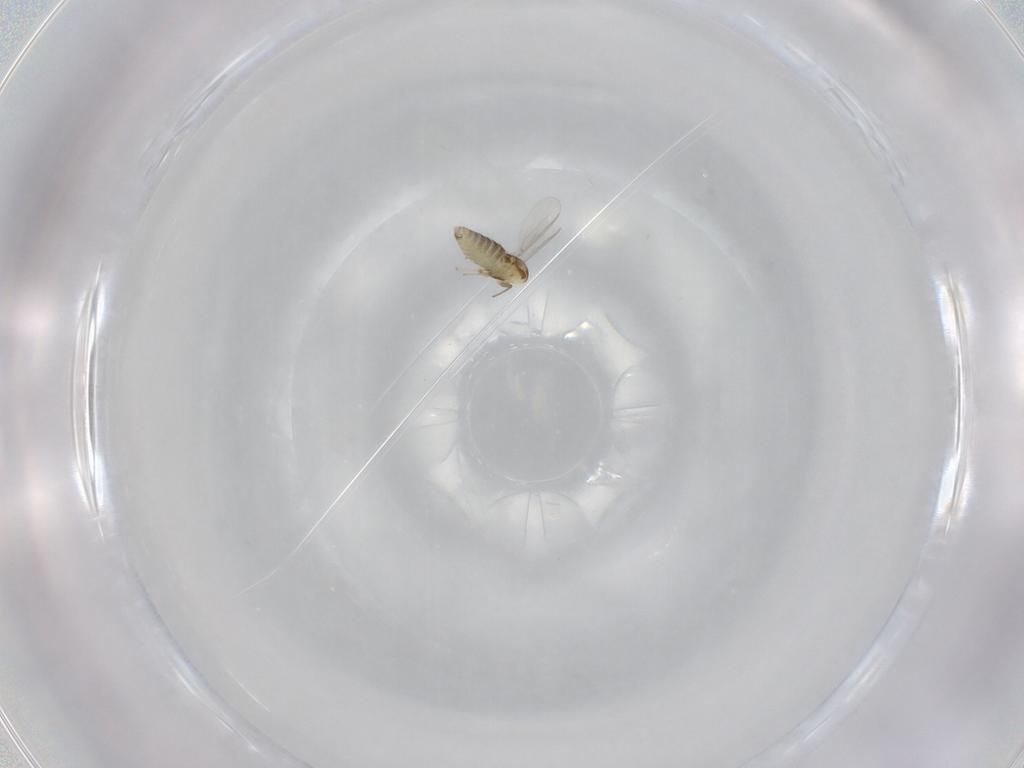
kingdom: Animalia
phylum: Arthropoda
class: Insecta
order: Diptera
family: Chironomidae
